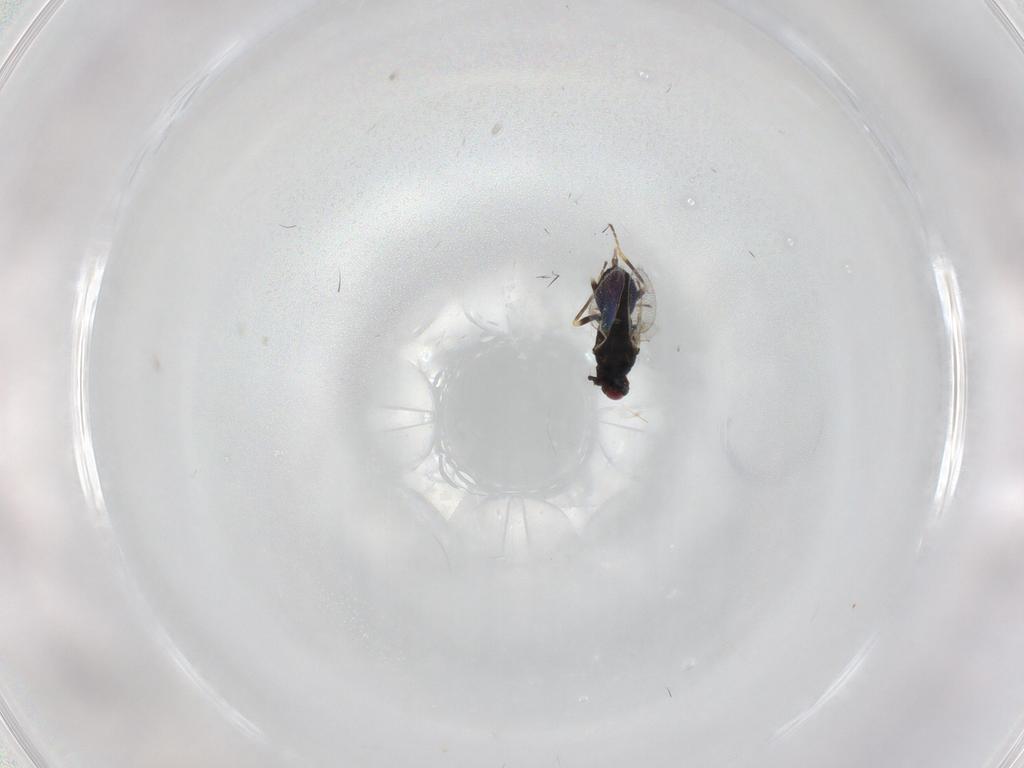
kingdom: Animalia
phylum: Arthropoda
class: Insecta
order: Hymenoptera
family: Eulophidae
